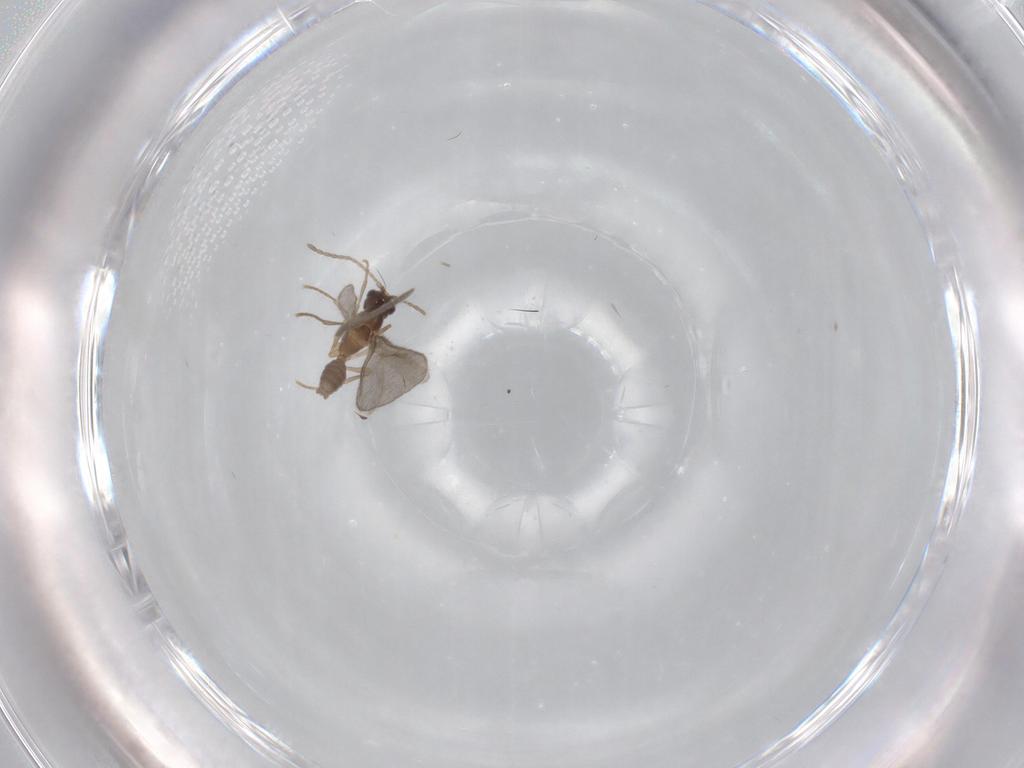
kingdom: Animalia
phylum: Arthropoda
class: Insecta
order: Hymenoptera
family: Formicidae
